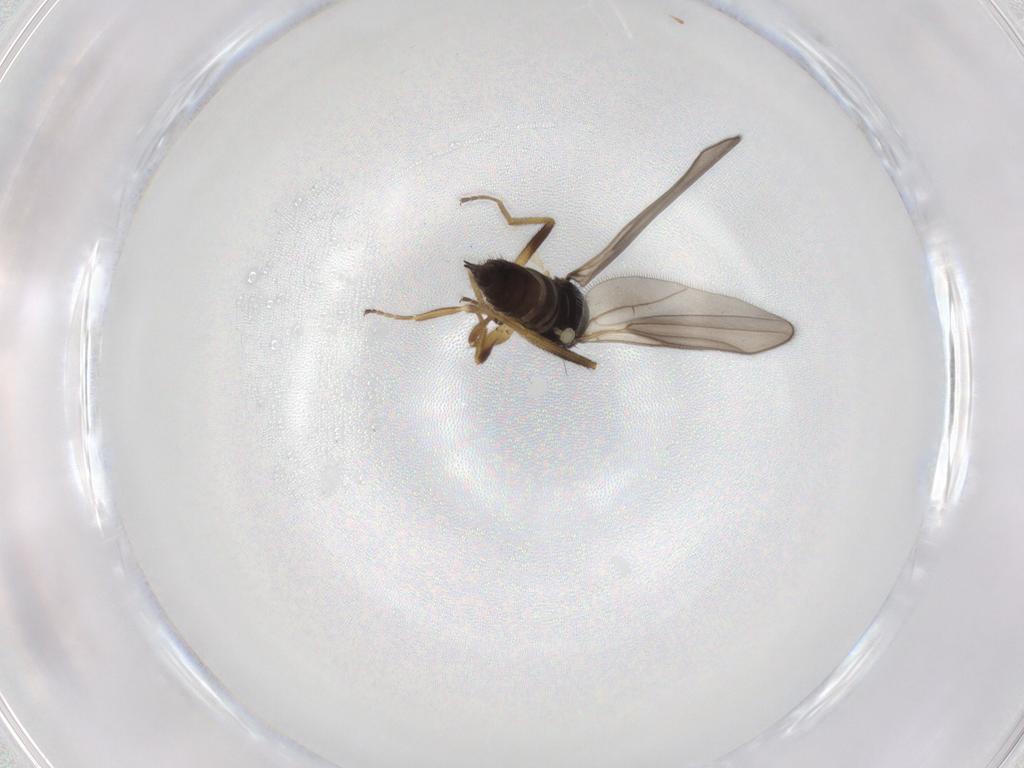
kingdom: Animalia
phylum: Arthropoda
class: Insecta
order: Diptera
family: Hybotidae
